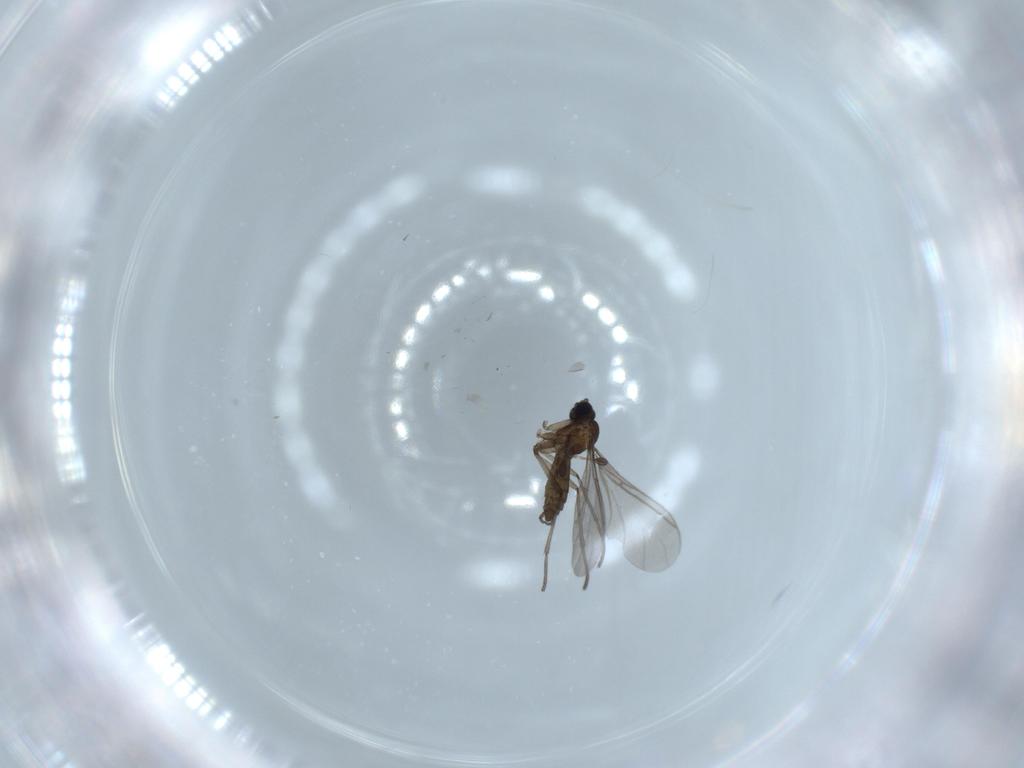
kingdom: Animalia
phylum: Arthropoda
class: Insecta
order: Diptera
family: Sciaridae
